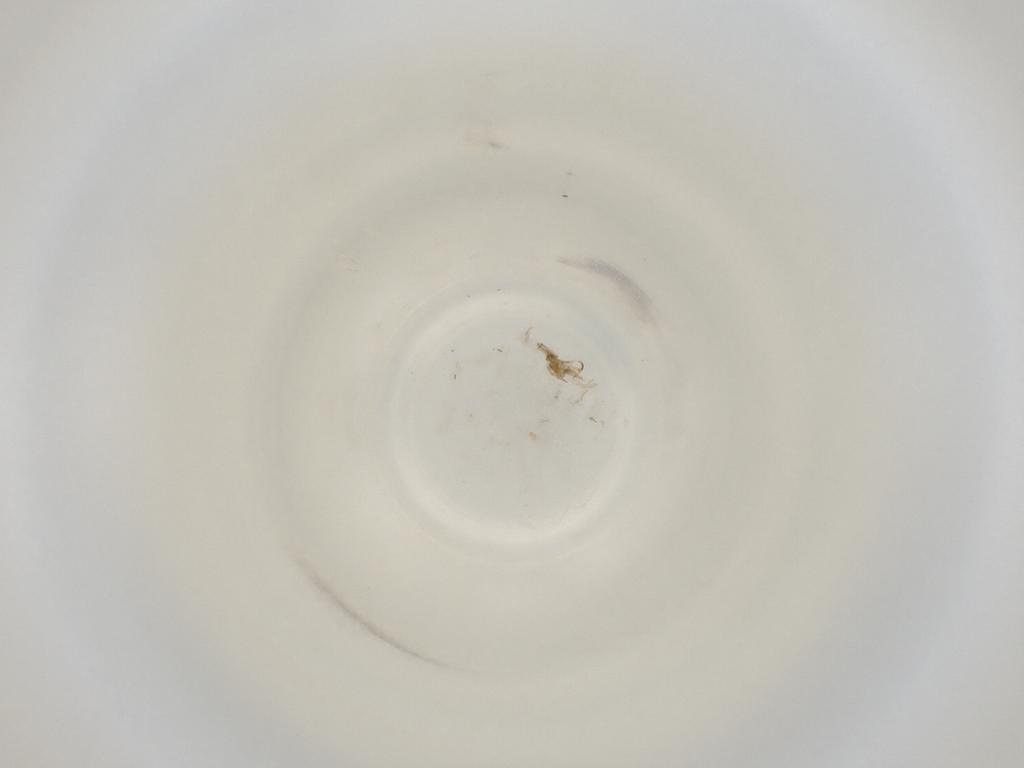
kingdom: Animalia
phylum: Arthropoda
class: Insecta
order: Diptera
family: Cecidomyiidae
